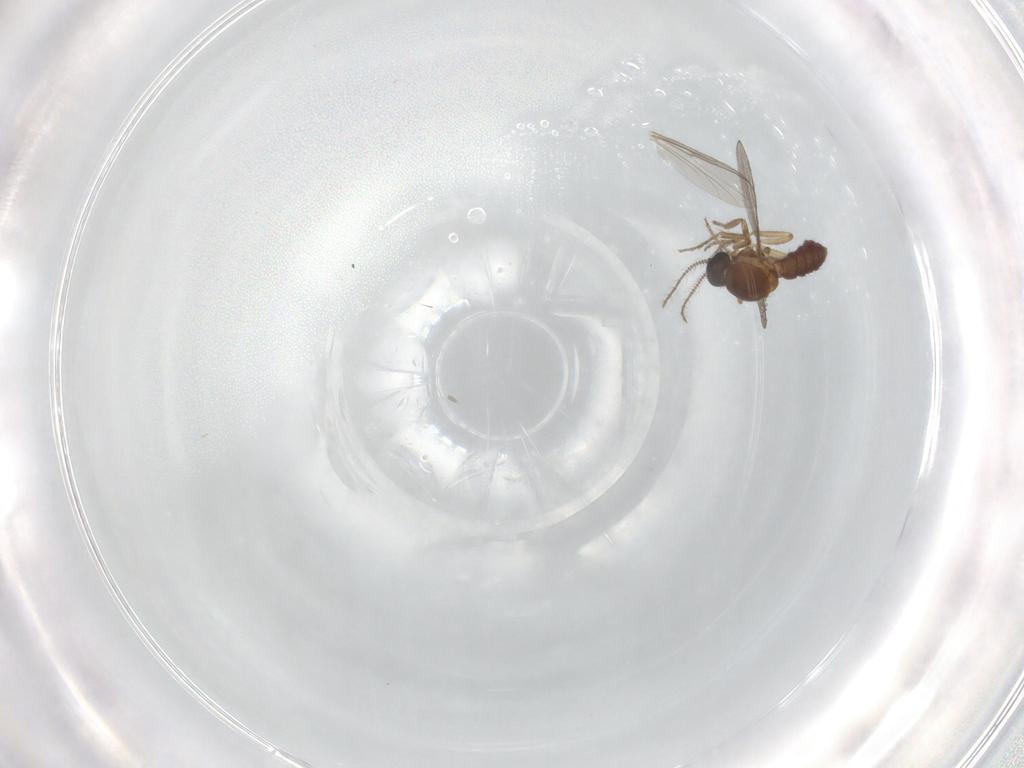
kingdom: Animalia
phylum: Arthropoda
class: Insecta
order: Diptera
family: Chironomidae
